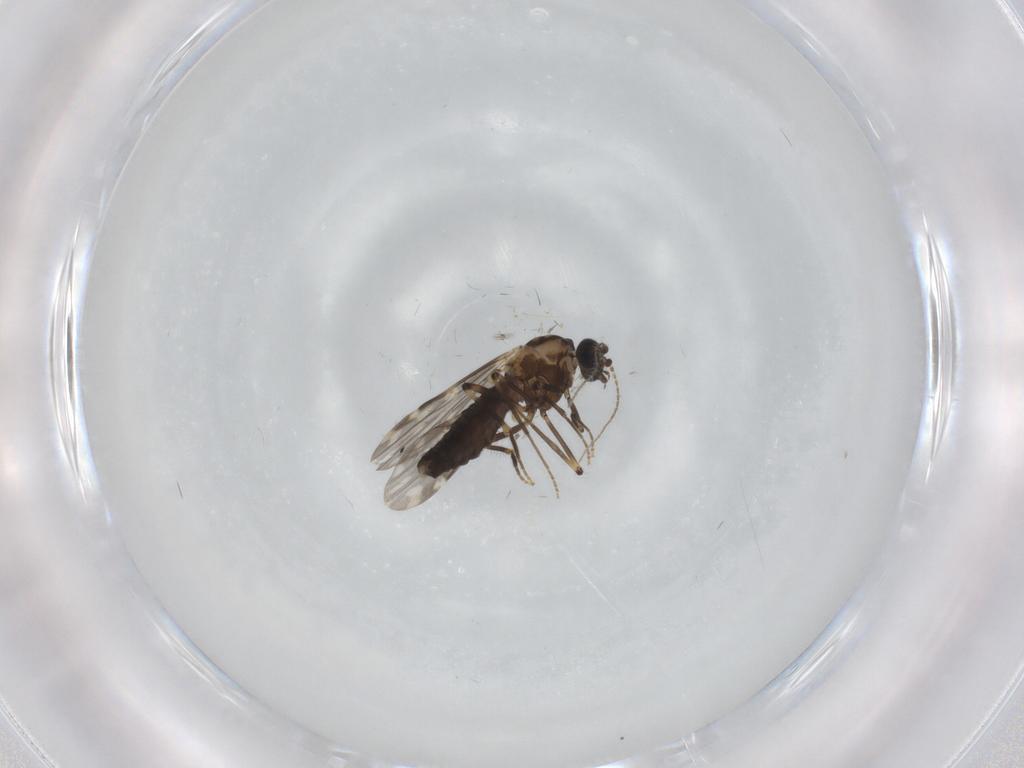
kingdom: Animalia
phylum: Arthropoda
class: Insecta
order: Diptera
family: Ceratopogonidae
